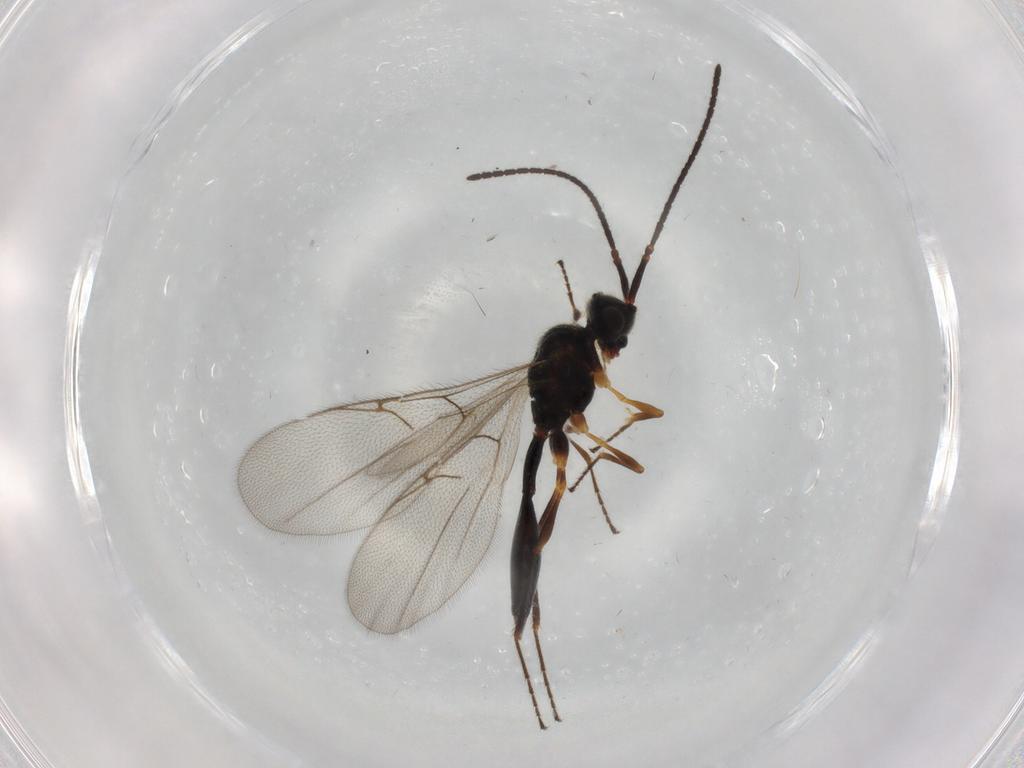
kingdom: Animalia
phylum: Arthropoda
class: Insecta
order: Hymenoptera
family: Diapriidae
